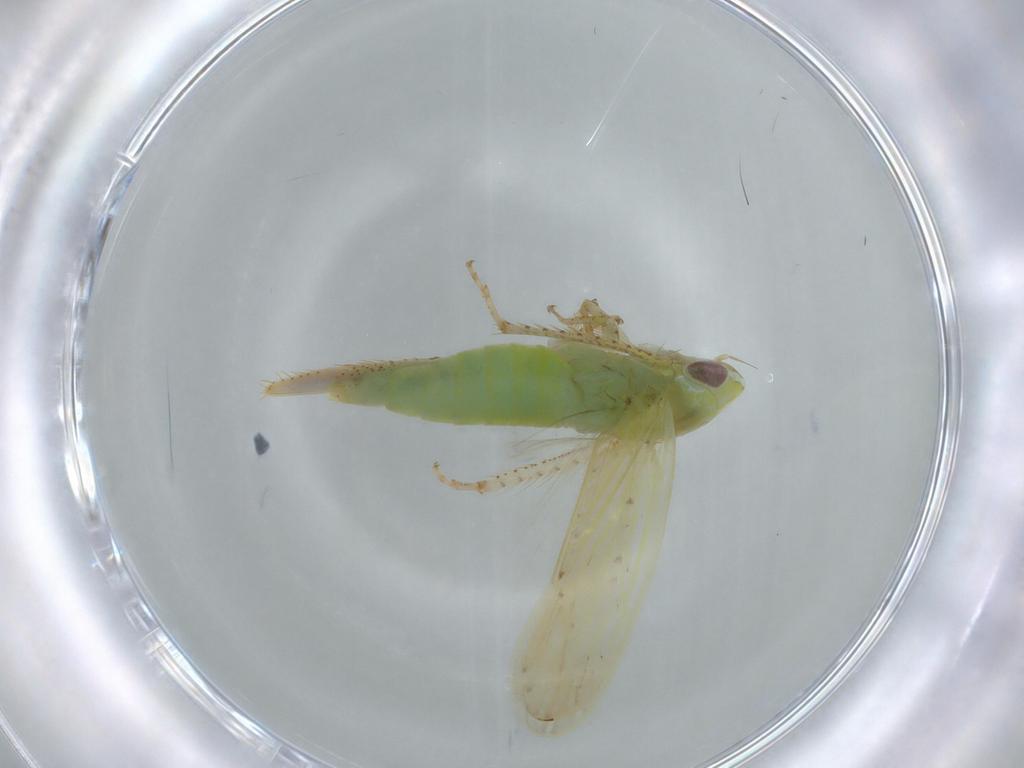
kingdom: Animalia
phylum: Arthropoda
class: Insecta
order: Hemiptera
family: Cicadellidae
